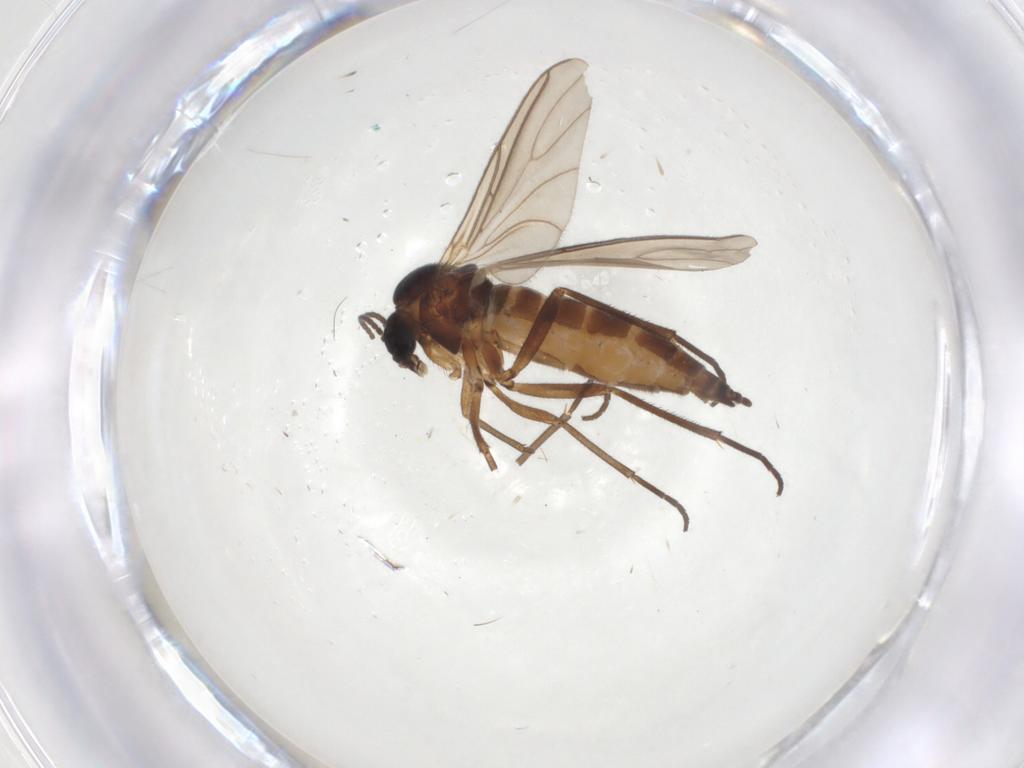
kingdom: Animalia
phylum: Arthropoda
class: Insecta
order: Diptera
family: Sciaridae
